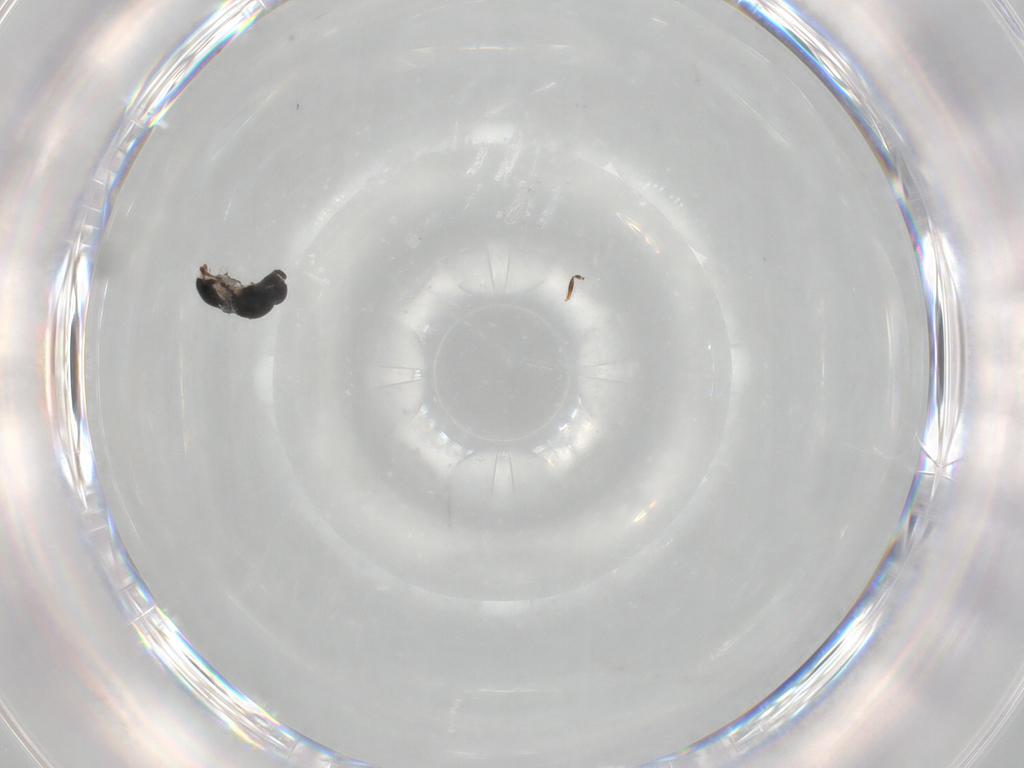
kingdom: Animalia
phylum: Arthropoda
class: Insecta
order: Hymenoptera
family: Platygastridae
